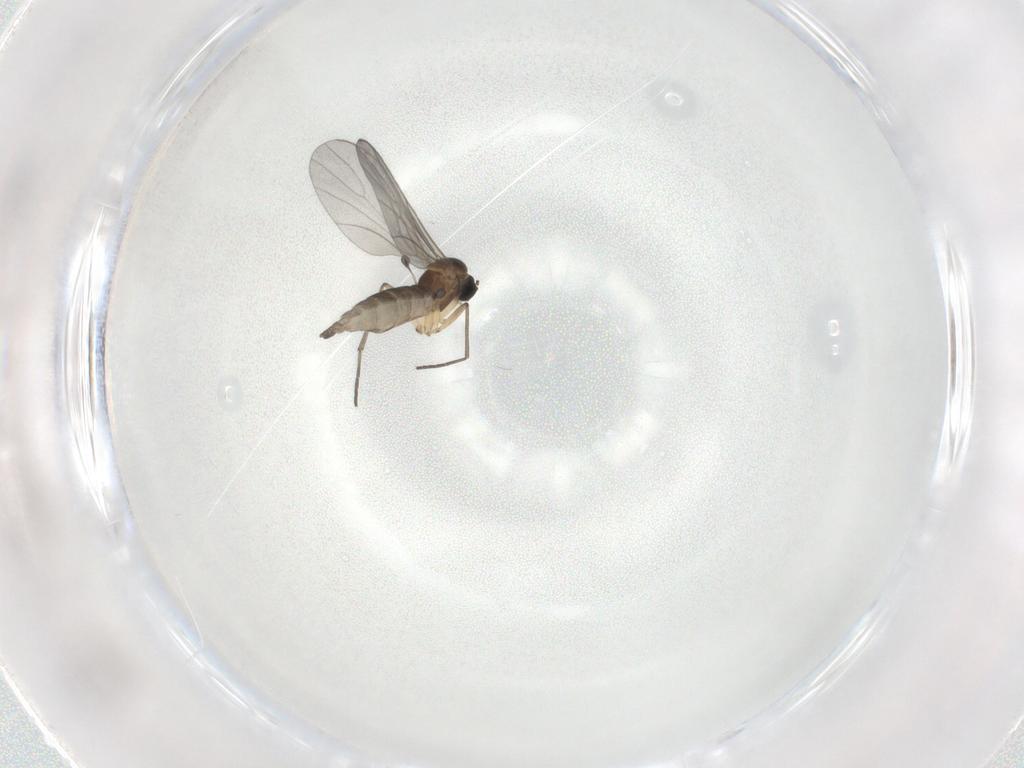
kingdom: Animalia
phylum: Arthropoda
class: Insecta
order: Diptera
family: Sciaridae
